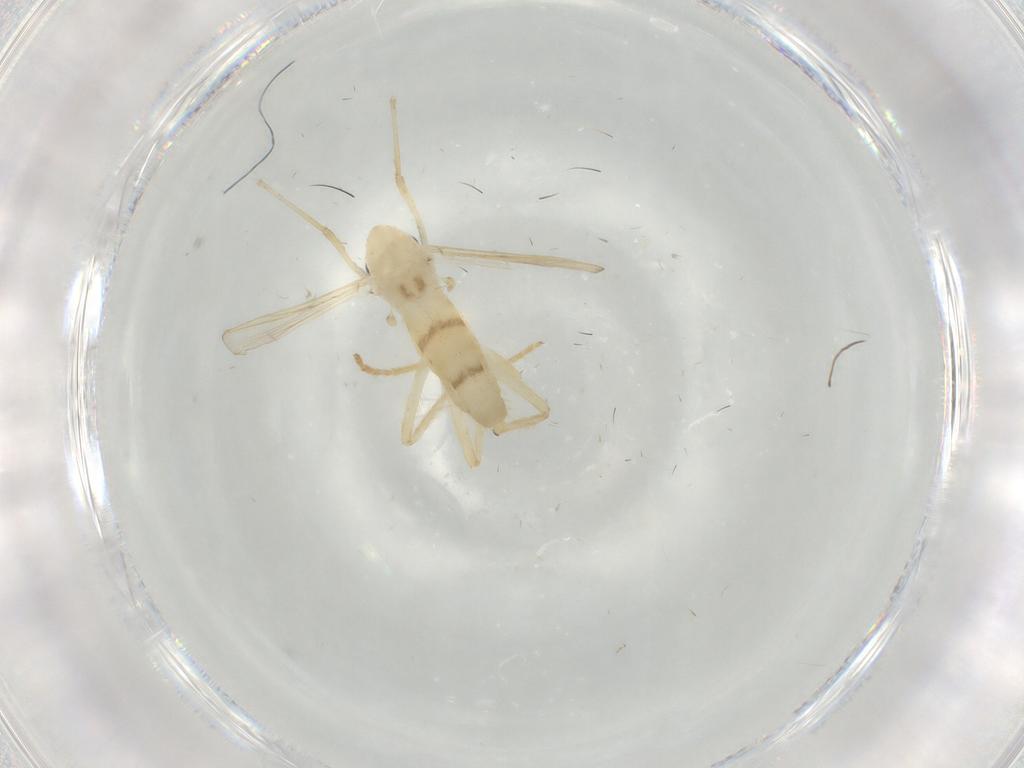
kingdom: Animalia
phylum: Arthropoda
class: Insecta
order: Diptera
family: Chironomidae
